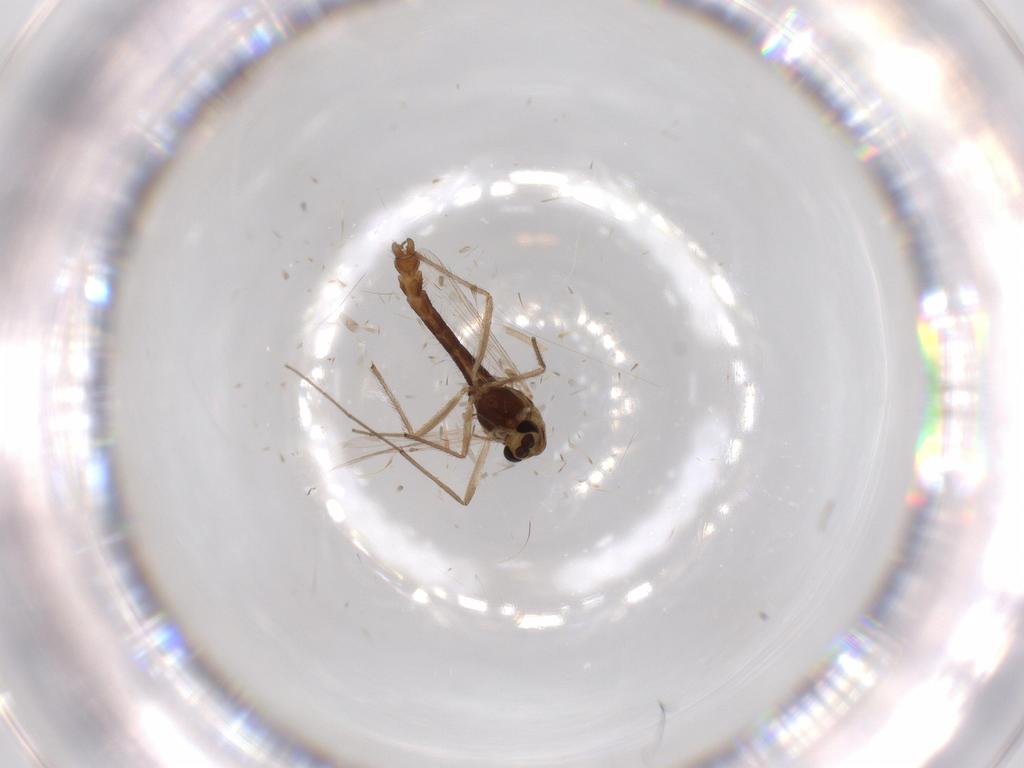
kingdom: Animalia
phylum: Arthropoda
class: Insecta
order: Diptera
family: Chironomidae
